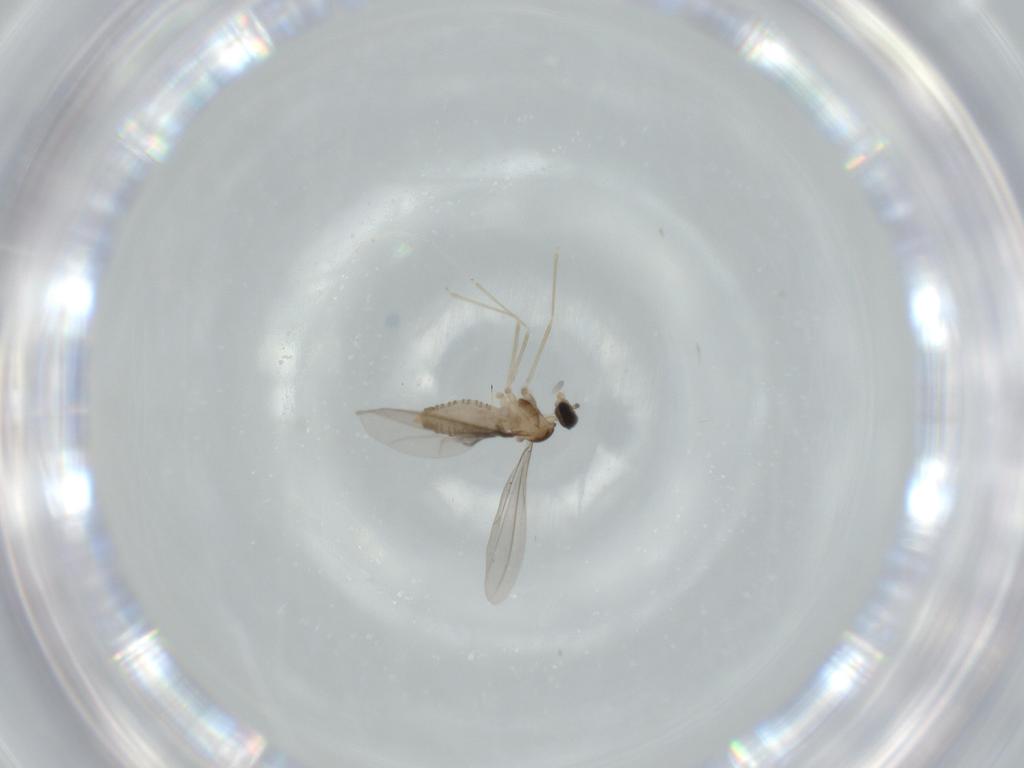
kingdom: Animalia
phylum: Arthropoda
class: Insecta
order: Diptera
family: Cecidomyiidae
